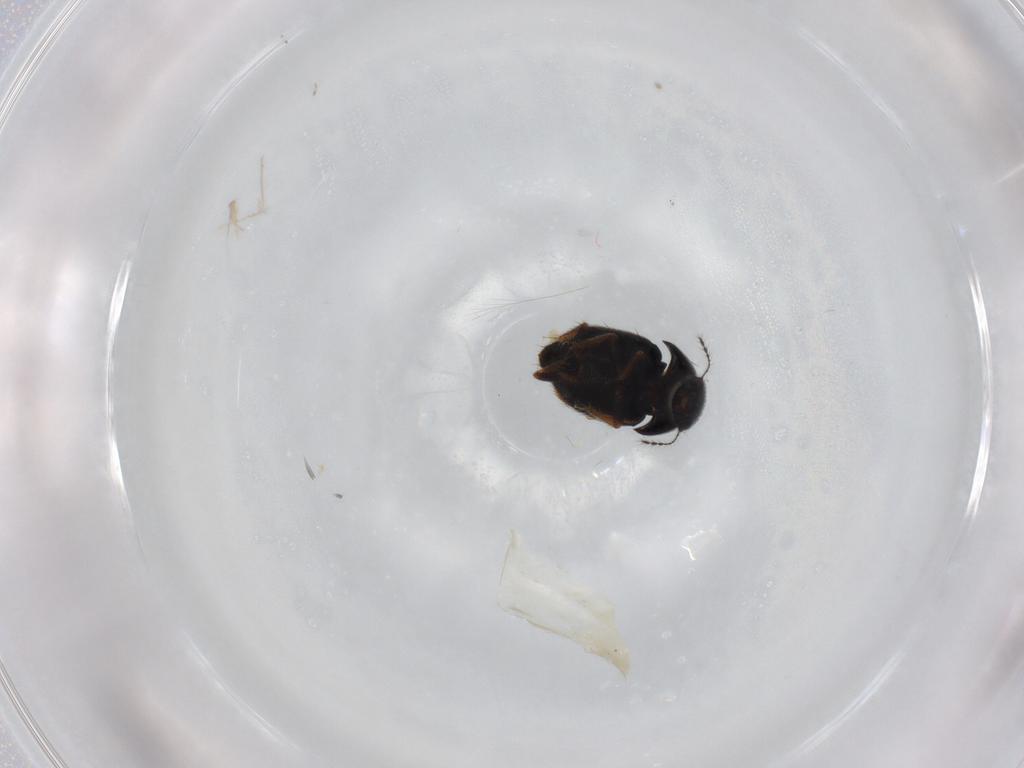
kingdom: Animalia
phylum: Arthropoda
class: Insecta
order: Coleoptera
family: Ptiliidae
